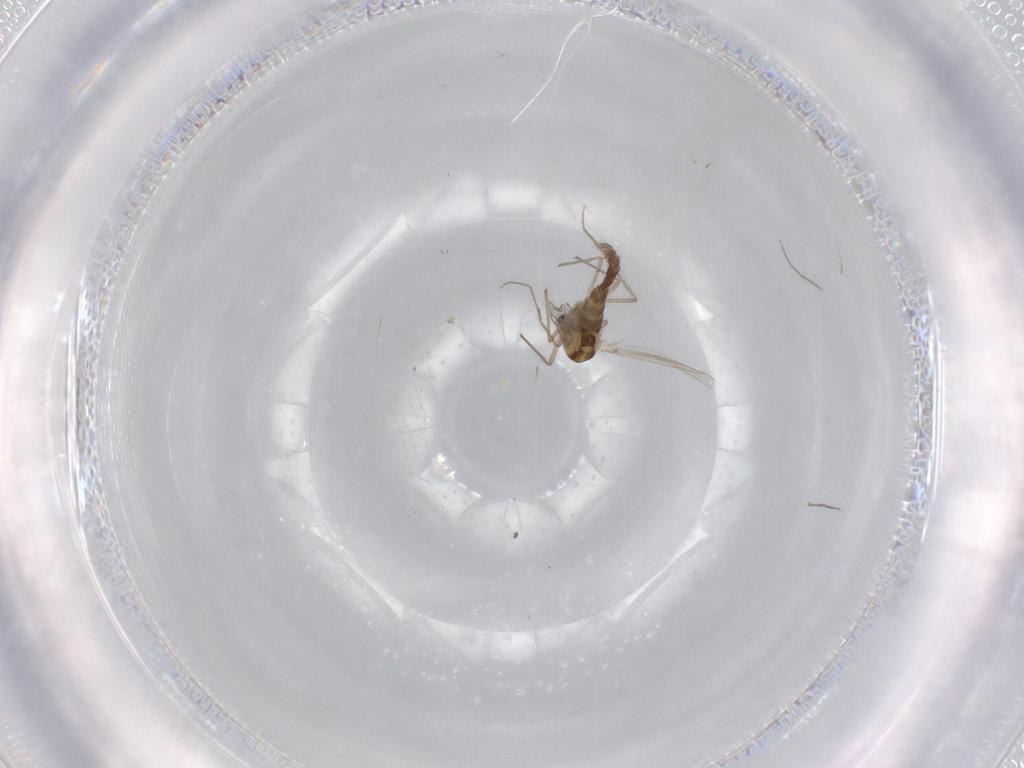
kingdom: Animalia
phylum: Arthropoda
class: Insecta
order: Diptera
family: Chironomidae
